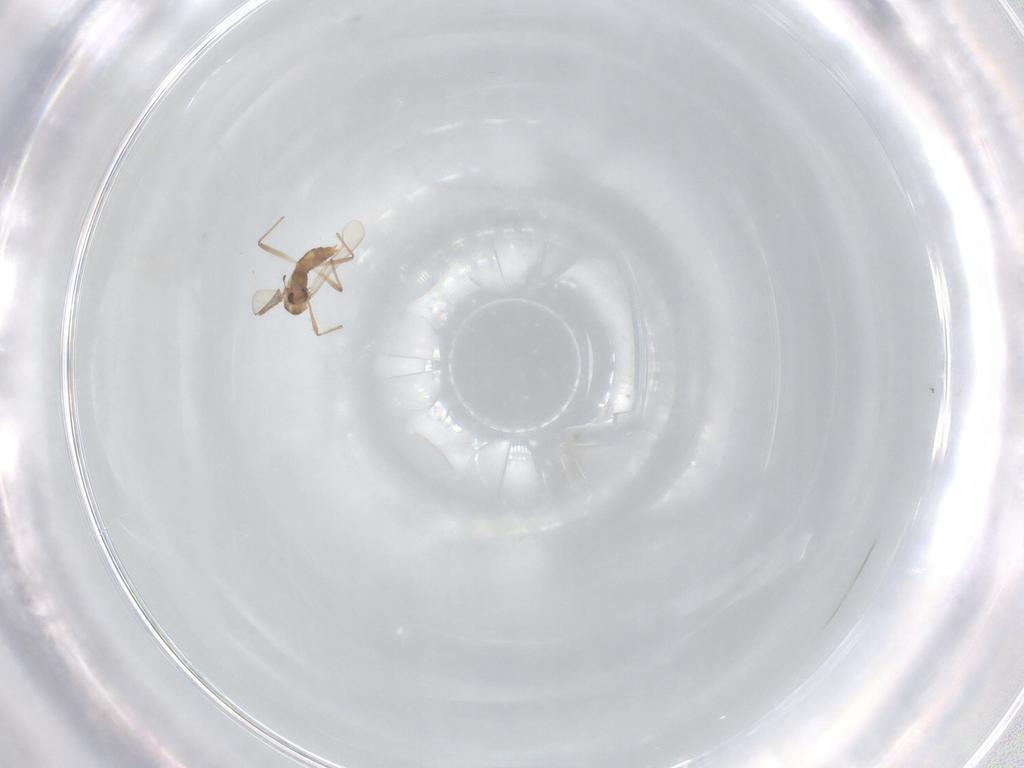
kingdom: Animalia
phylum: Arthropoda
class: Insecta
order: Diptera
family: Chironomidae
